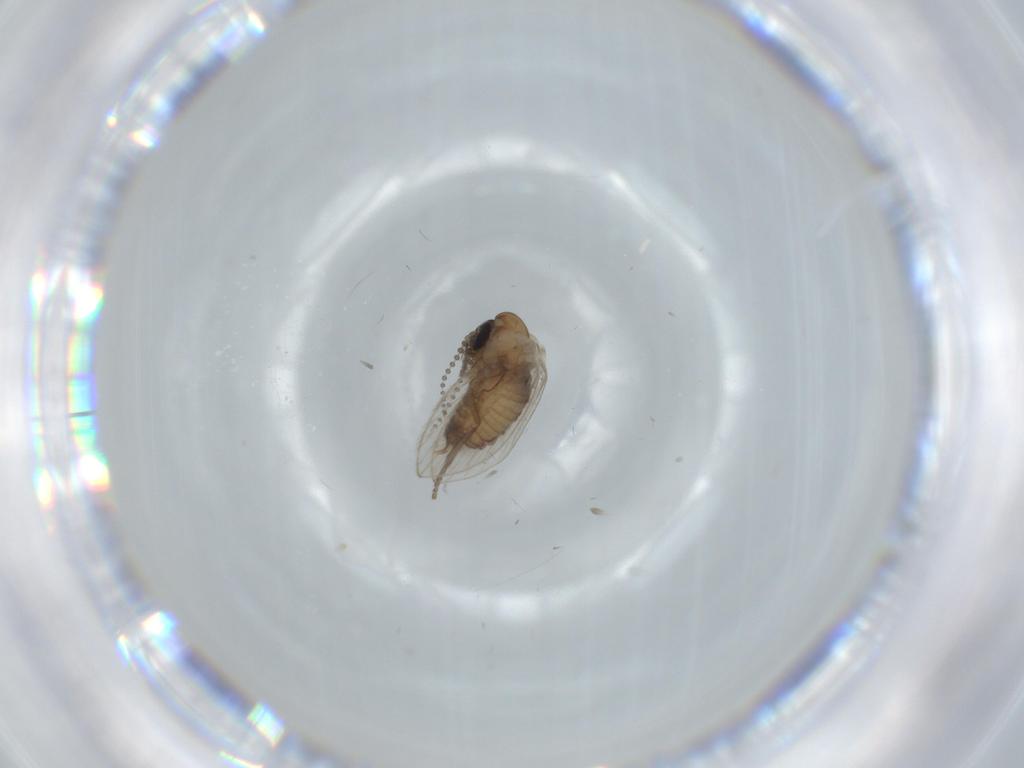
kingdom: Animalia
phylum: Arthropoda
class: Insecta
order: Diptera
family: Psychodidae
